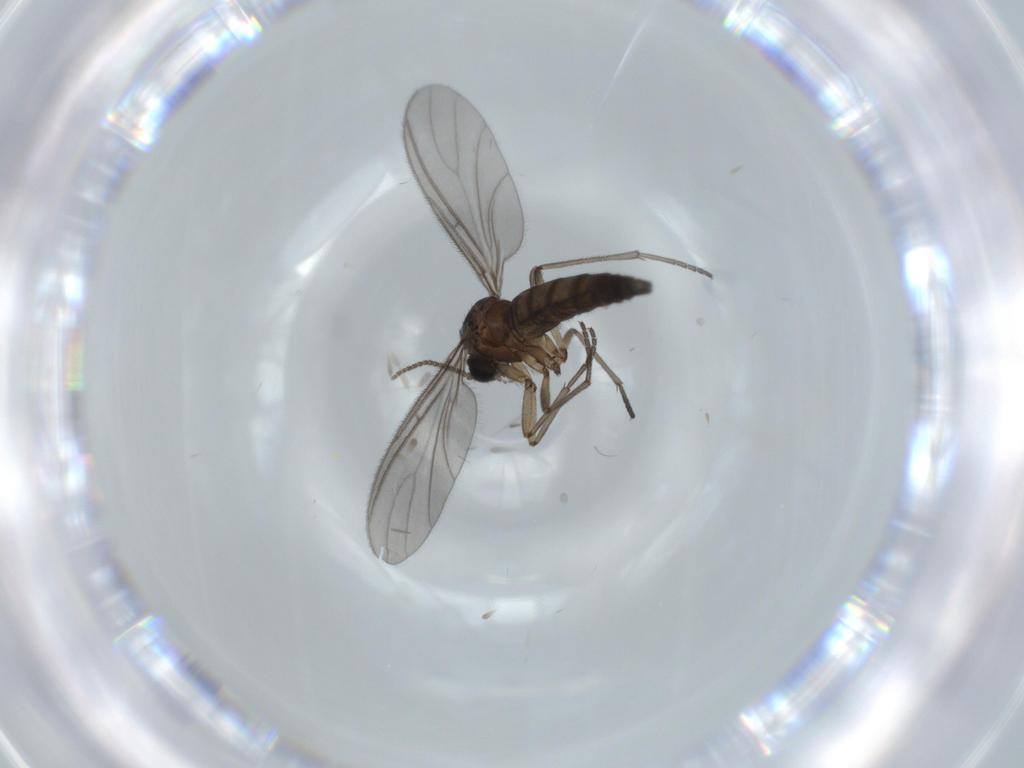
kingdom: Animalia
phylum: Arthropoda
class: Insecta
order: Diptera
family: Sciaridae
